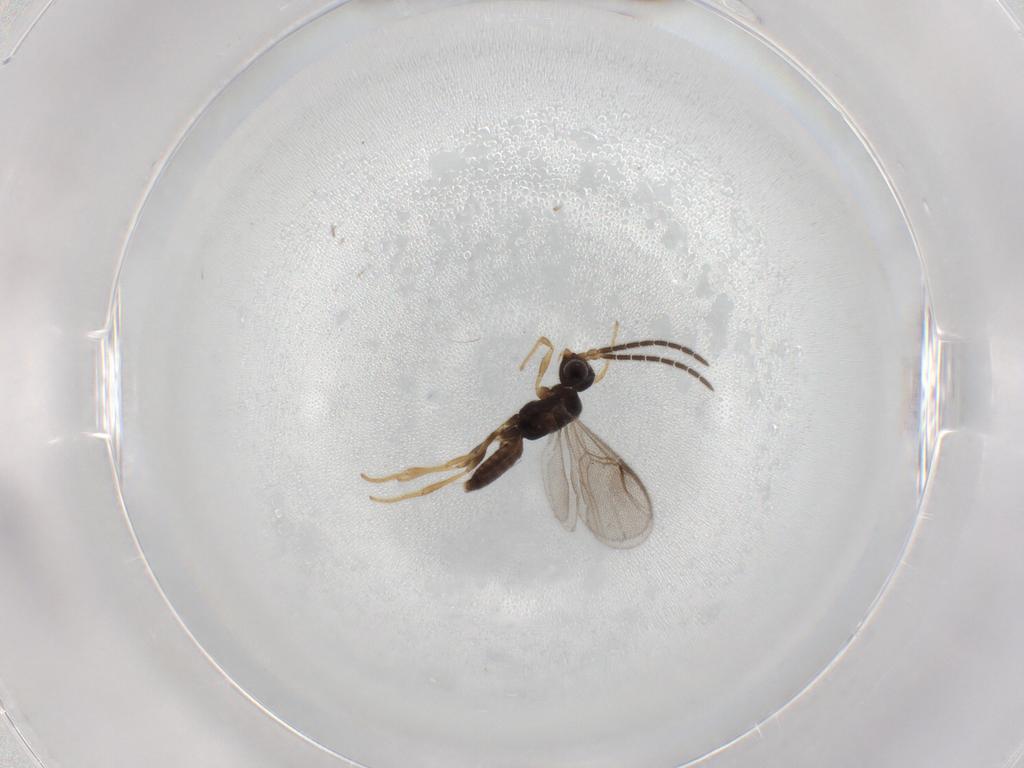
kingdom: Animalia
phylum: Arthropoda
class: Insecta
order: Hymenoptera
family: Dryinidae
